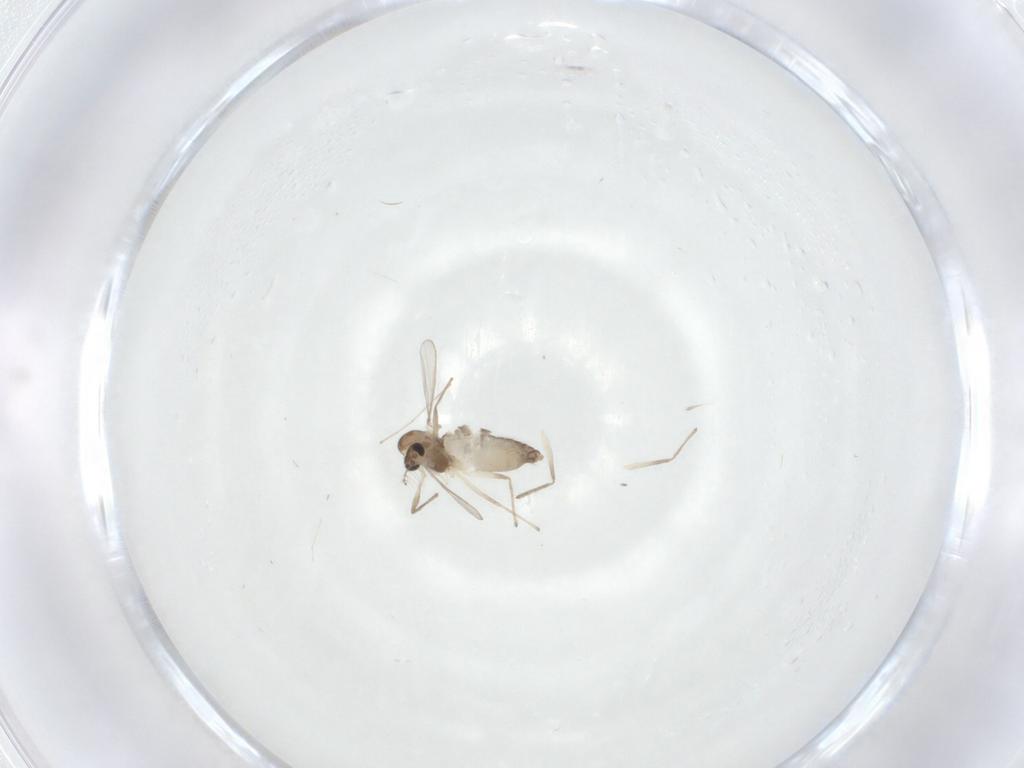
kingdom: Animalia
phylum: Arthropoda
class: Insecta
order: Diptera
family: Chironomidae
